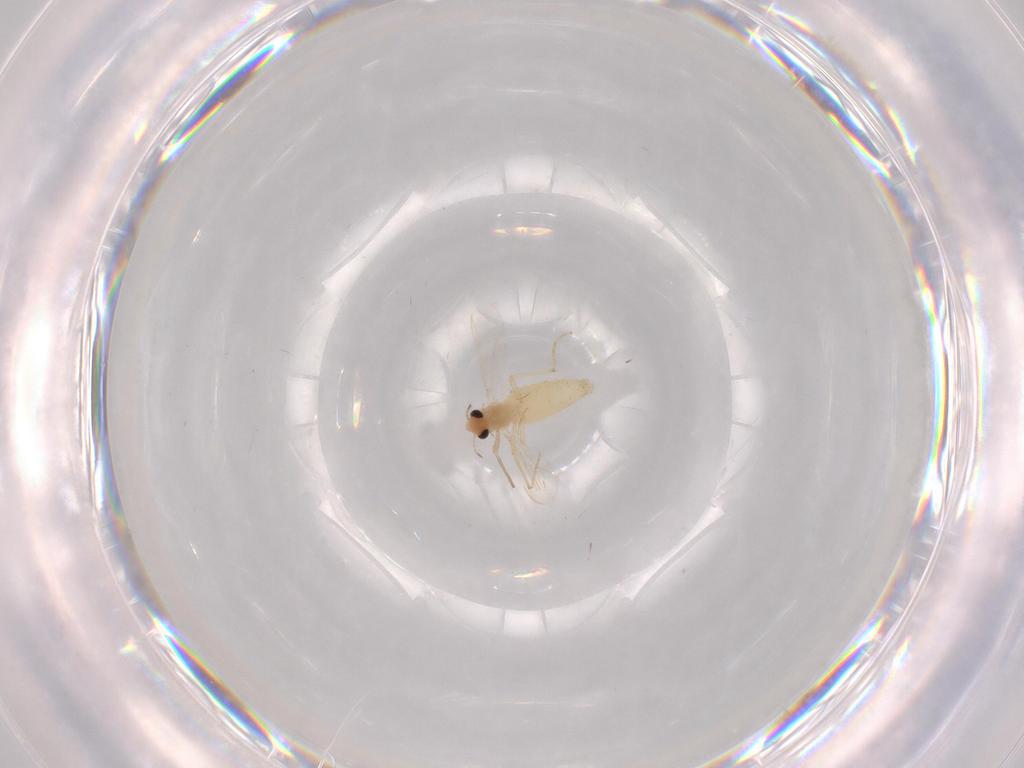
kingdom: Animalia
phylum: Arthropoda
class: Insecta
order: Diptera
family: Chironomidae
